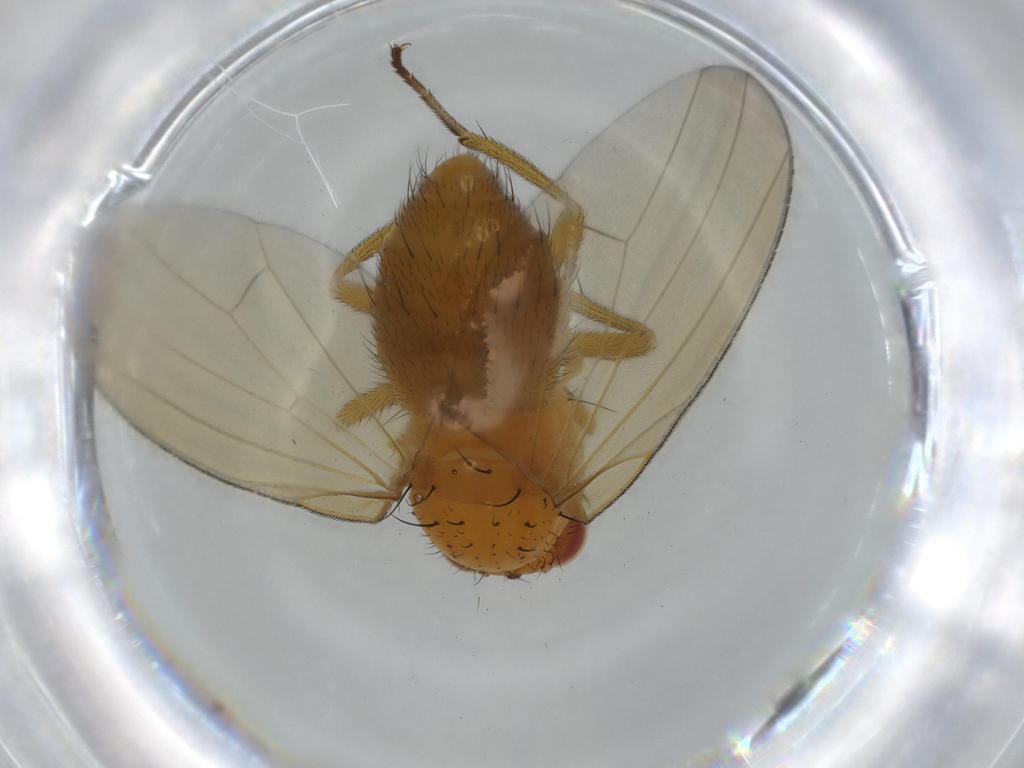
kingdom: Animalia
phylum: Arthropoda
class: Insecta
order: Diptera
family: Lauxaniidae
